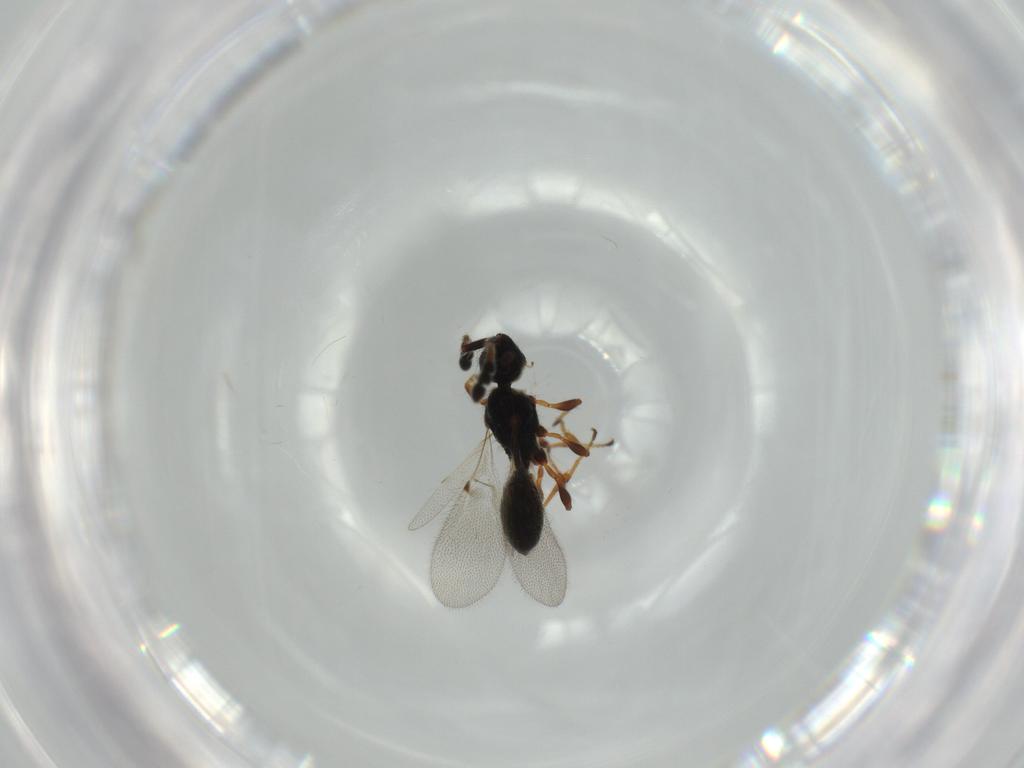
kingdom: Animalia
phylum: Arthropoda
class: Insecta
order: Hymenoptera
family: Diapriidae
